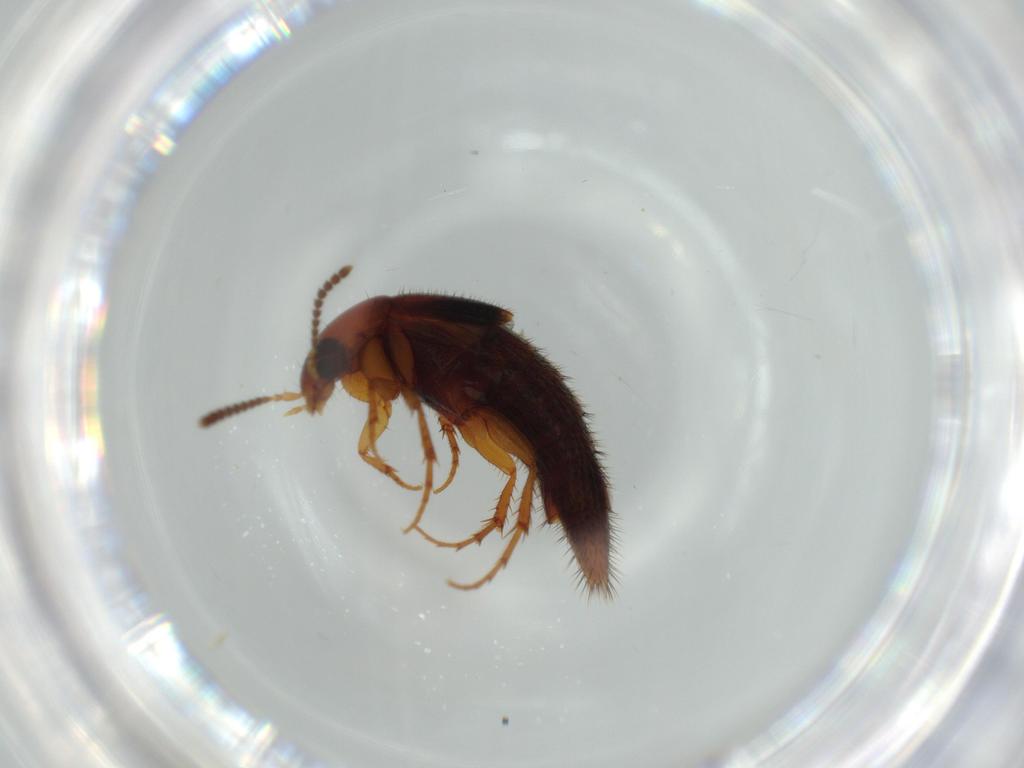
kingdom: Animalia
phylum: Arthropoda
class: Insecta
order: Coleoptera
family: Staphylinidae
